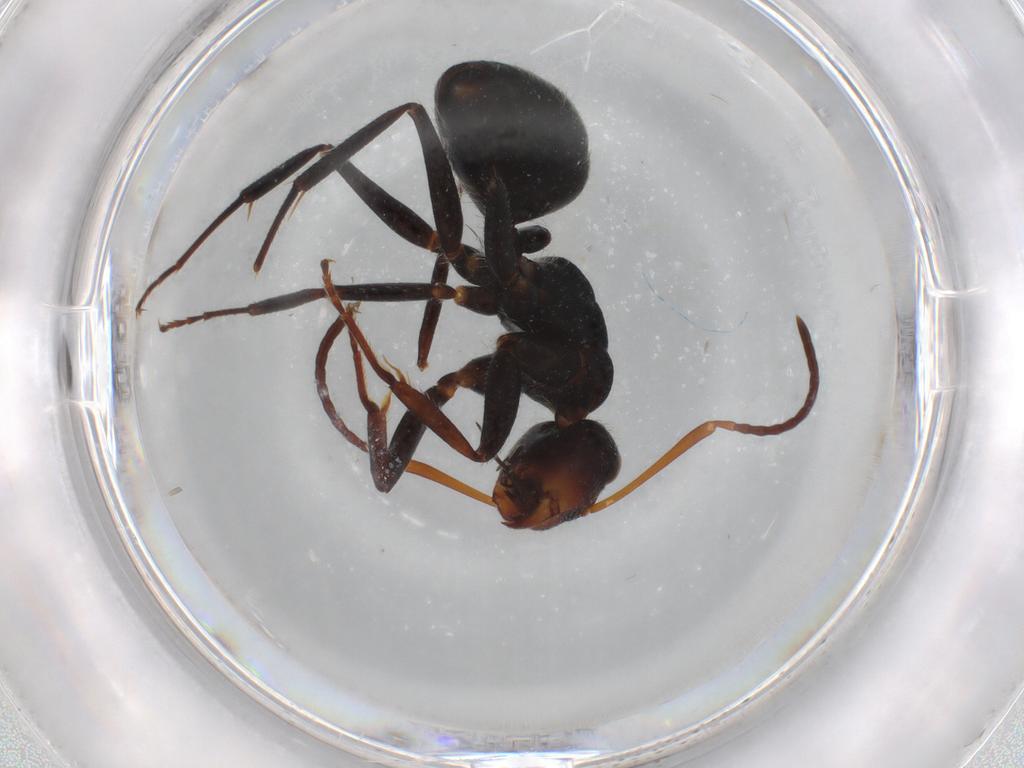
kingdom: Animalia
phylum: Arthropoda
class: Insecta
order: Hymenoptera
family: Formicidae
